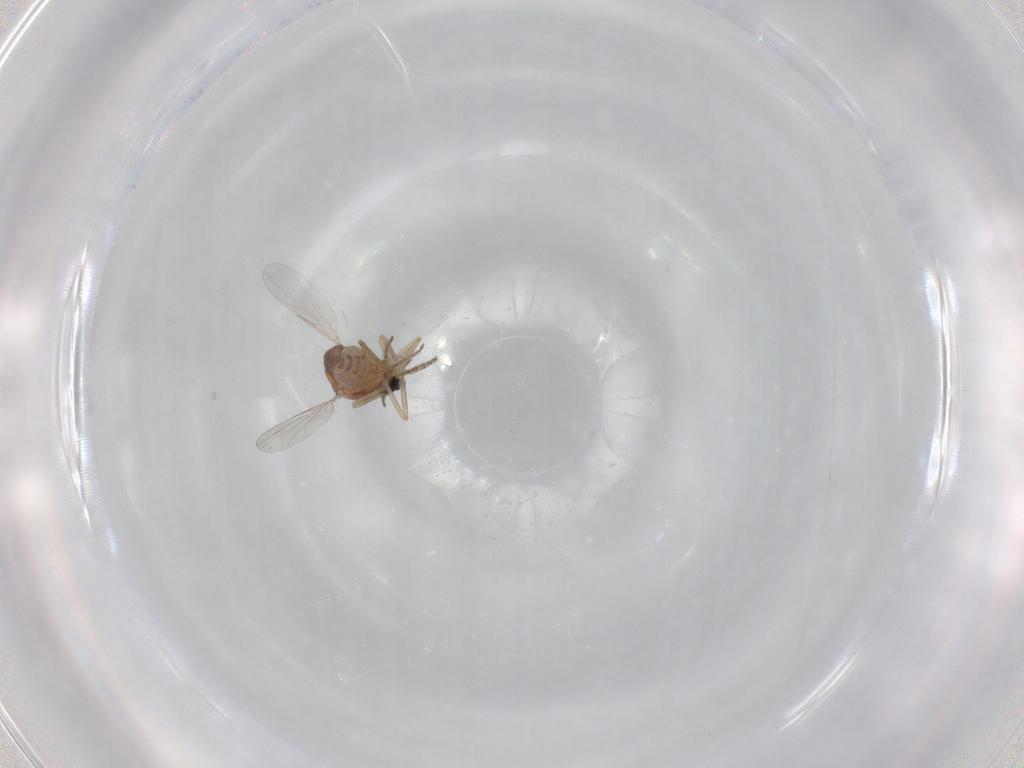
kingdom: Animalia
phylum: Arthropoda
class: Insecta
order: Diptera
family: Ceratopogonidae
